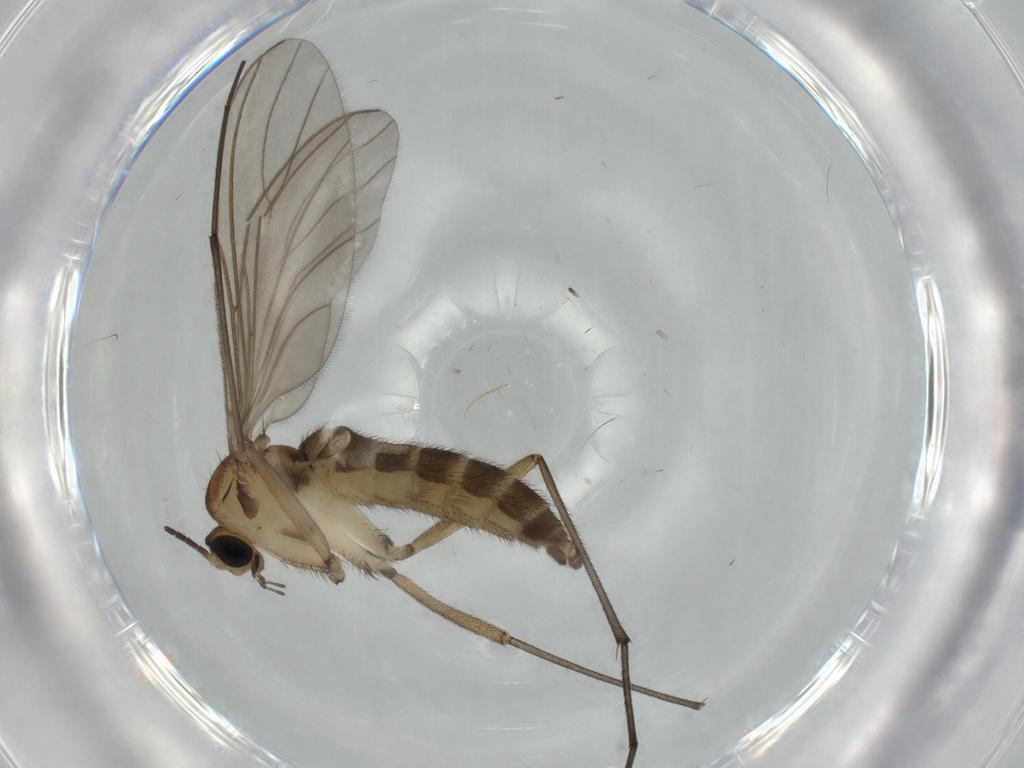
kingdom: Animalia
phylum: Arthropoda
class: Insecta
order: Diptera
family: Sciaridae
